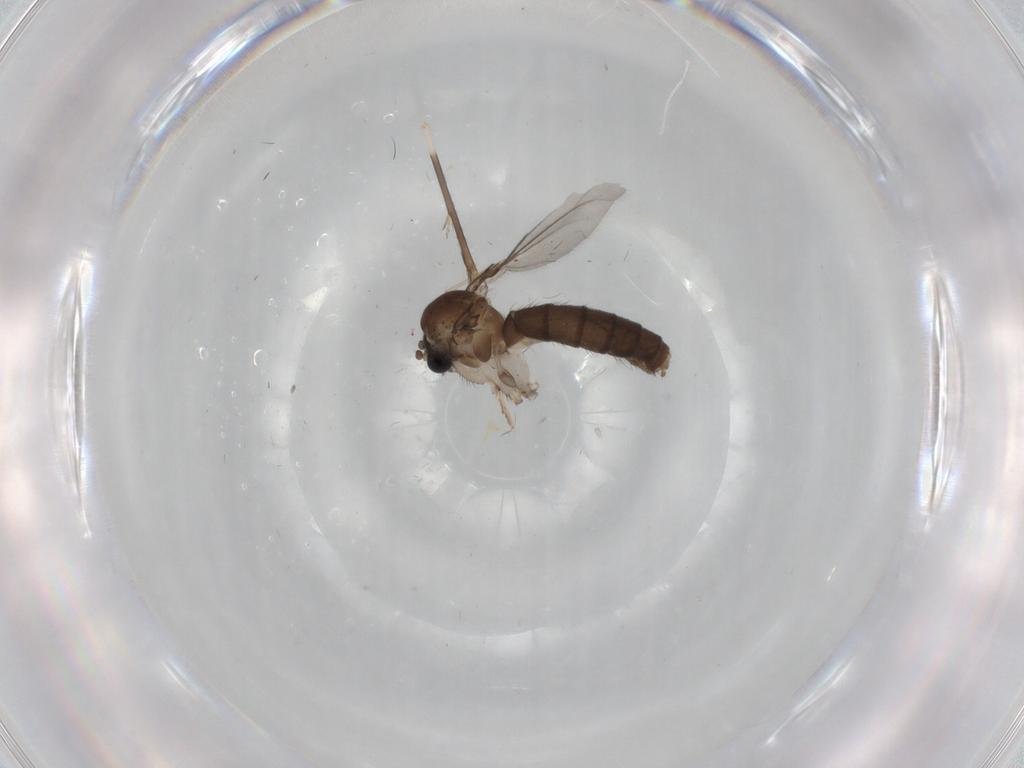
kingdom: Animalia
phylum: Arthropoda
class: Insecta
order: Diptera
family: Mycetophilidae
